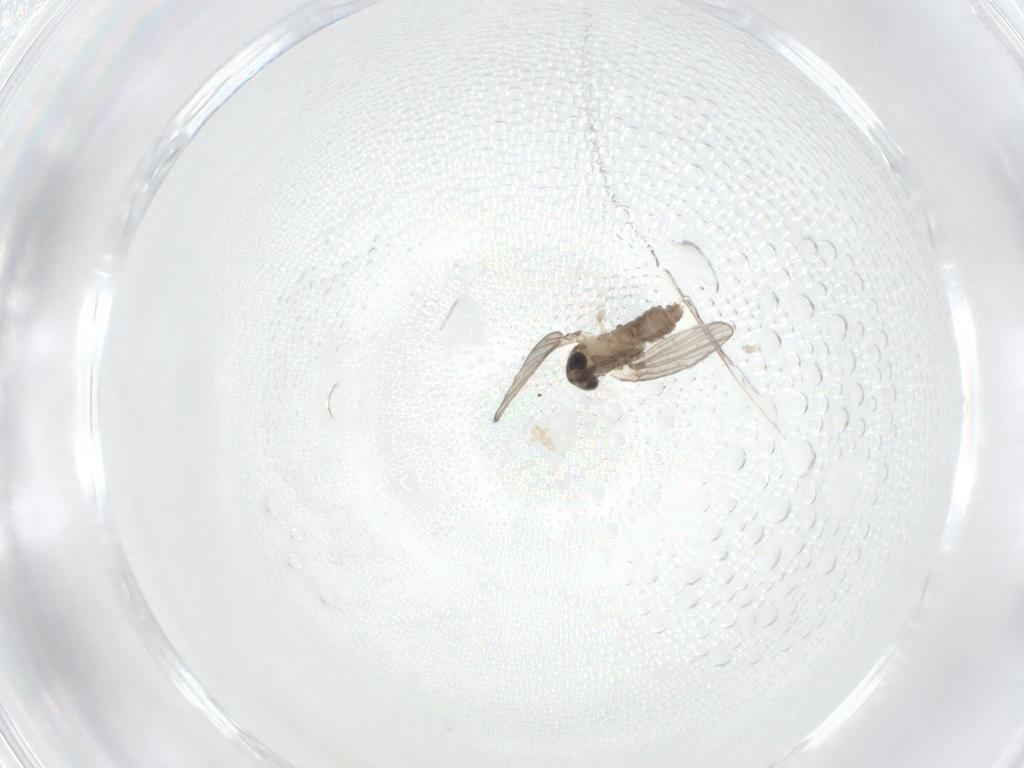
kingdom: Animalia
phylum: Arthropoda
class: Insecta
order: Diptera
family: Psychodidae
